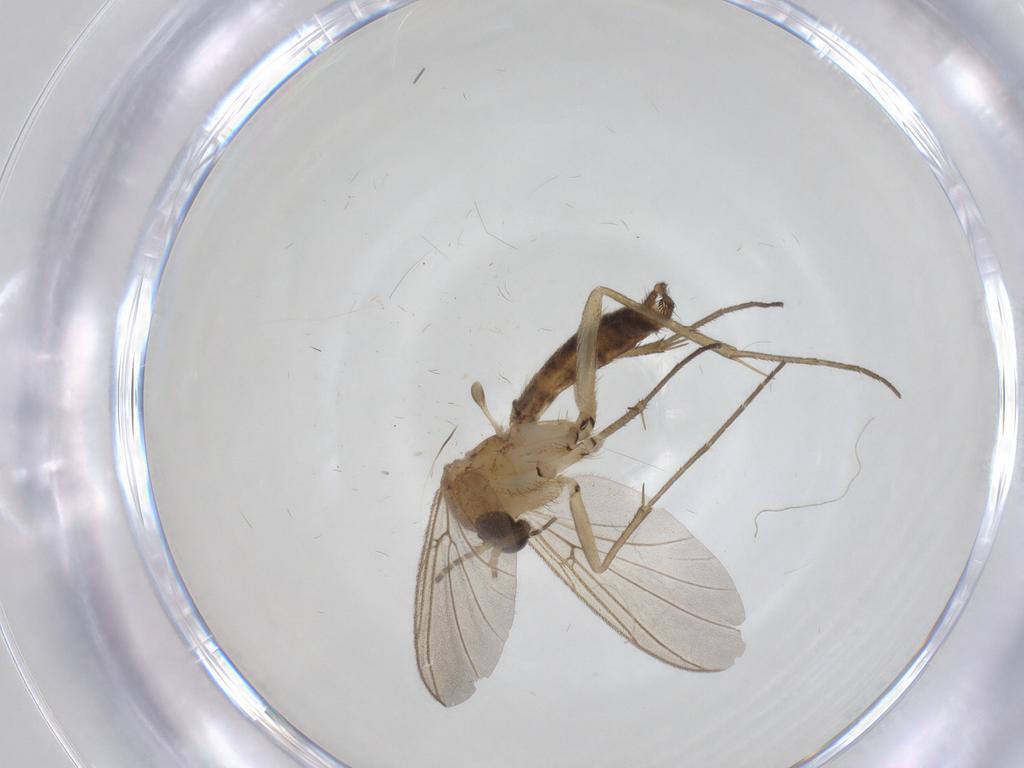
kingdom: Animalia
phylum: Arthropoda
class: Insecta
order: Diptera
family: Mycetophilidae
